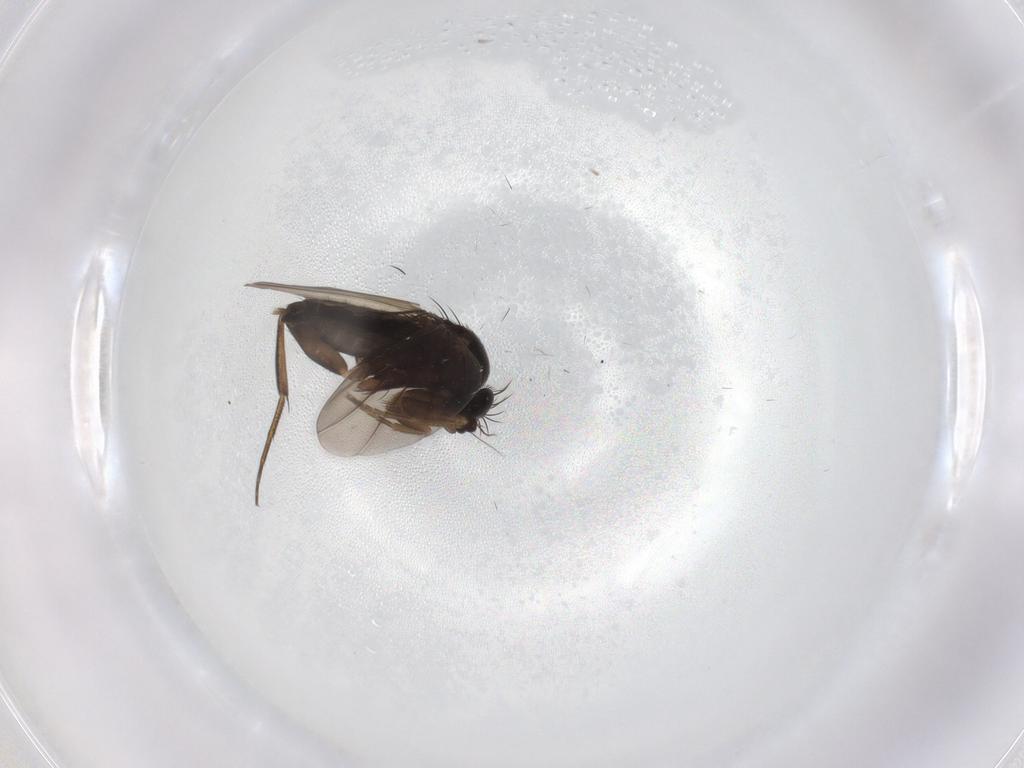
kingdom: Animalia
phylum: Arthropoda
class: Insecta
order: Diptera
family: Phoridae
